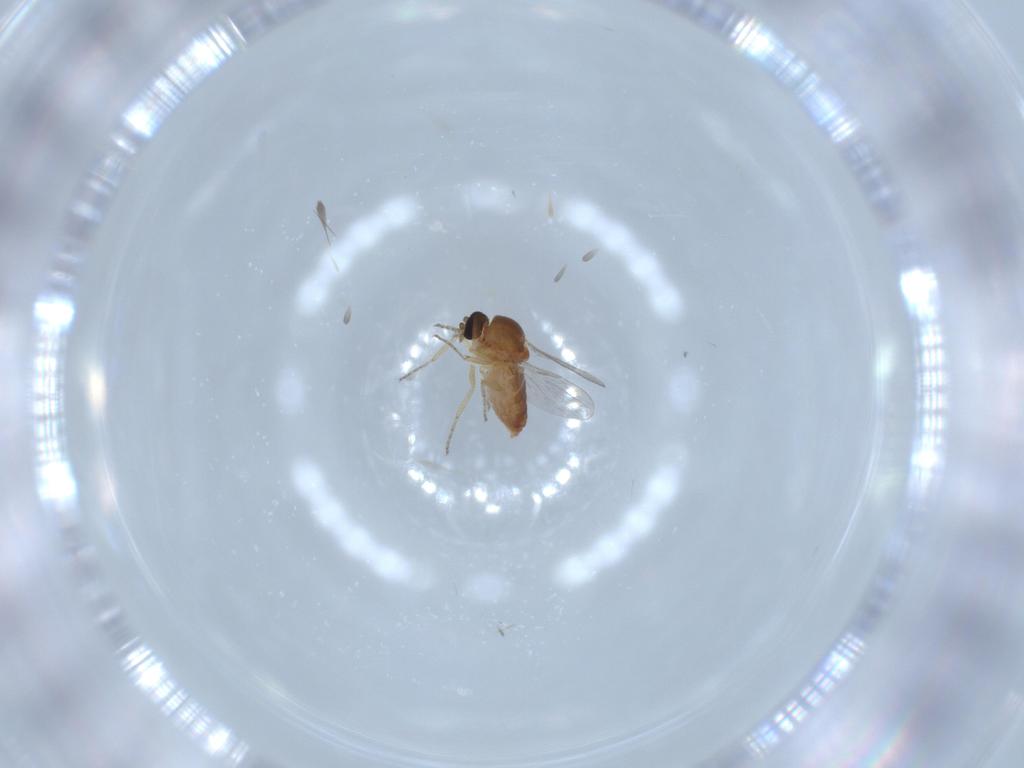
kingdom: Animalia
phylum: Arthropoda
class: Insecta
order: Diptera
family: Ceratopogonidae
